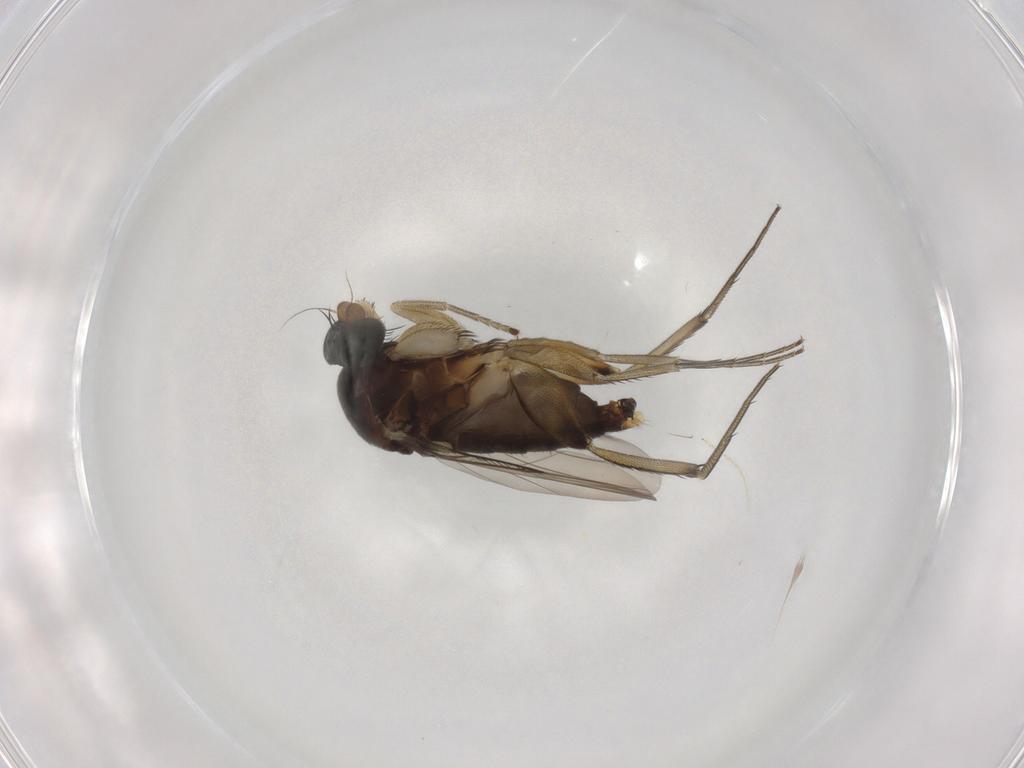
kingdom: Animalia
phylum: Arthropoda
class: Insecta
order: Diptera
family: Phoridae
